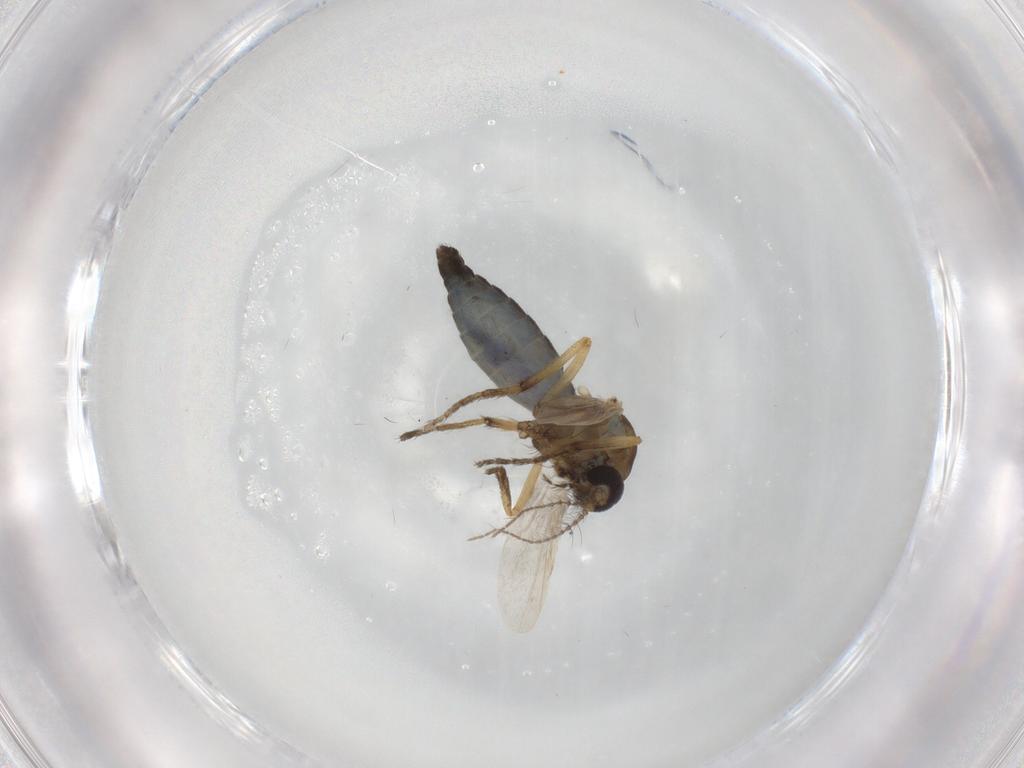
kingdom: Animalia
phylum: Arthropoda
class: Insecta
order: Diptera
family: Ceratopogonidae
